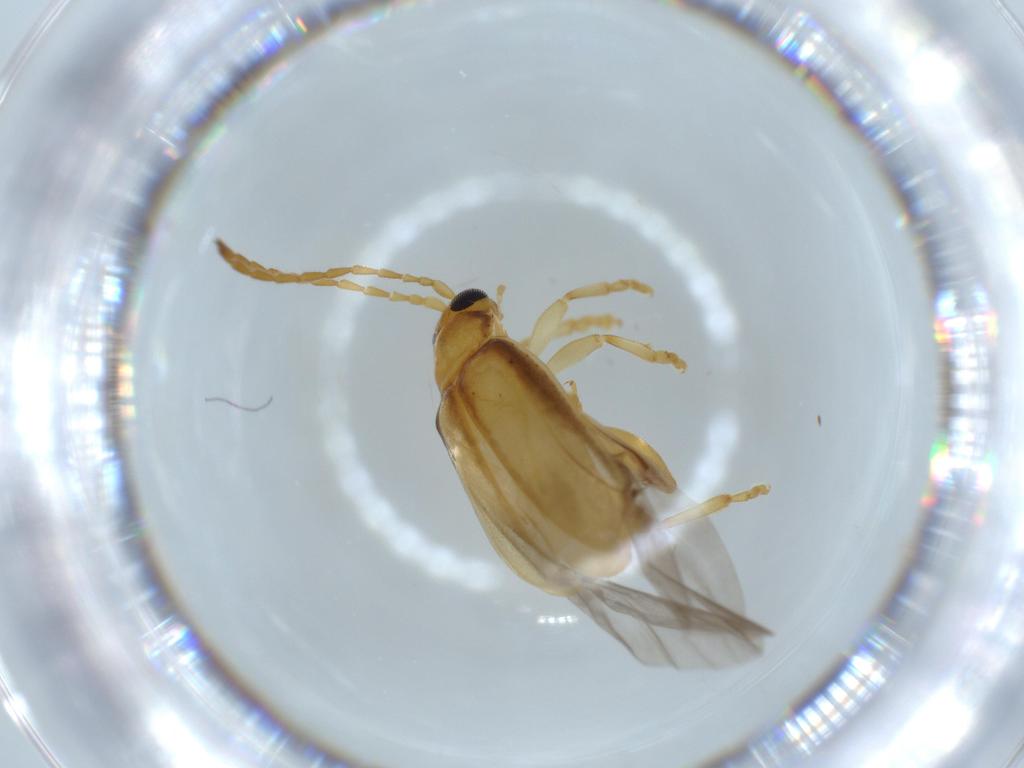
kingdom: Animalia
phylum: Arthropoda
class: Insecta
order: Coleoptera
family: Chrysomelidae
